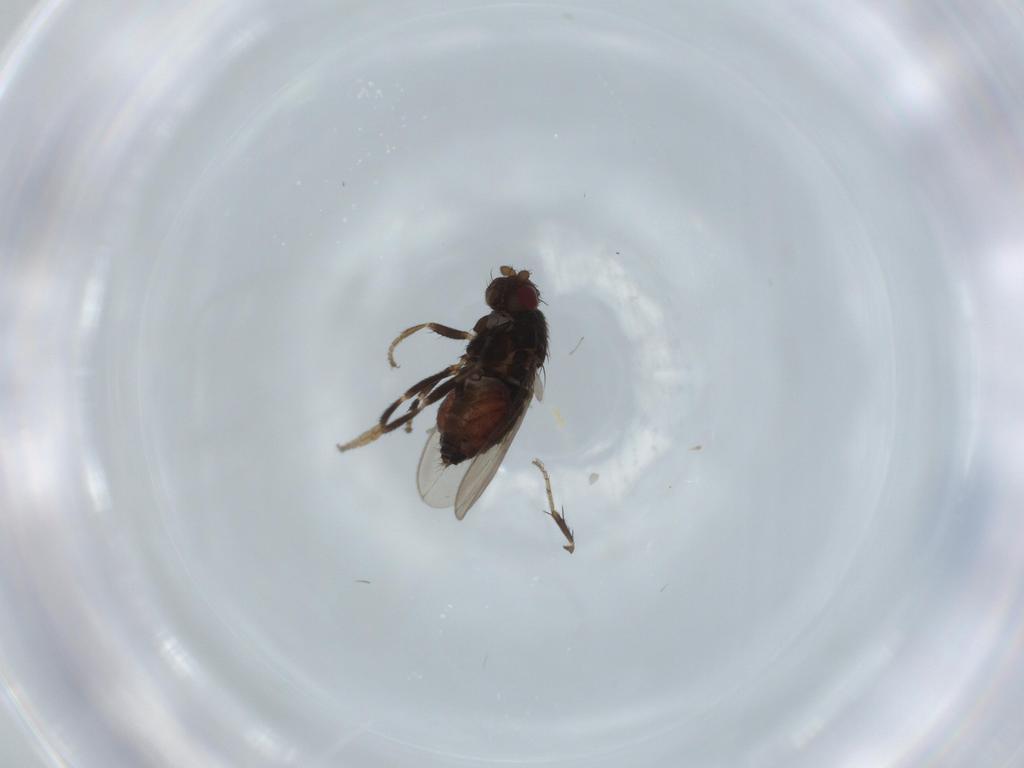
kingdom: Animalia
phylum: Arthropoda
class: Insecta
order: Diptera
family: Sphaeroceridae
